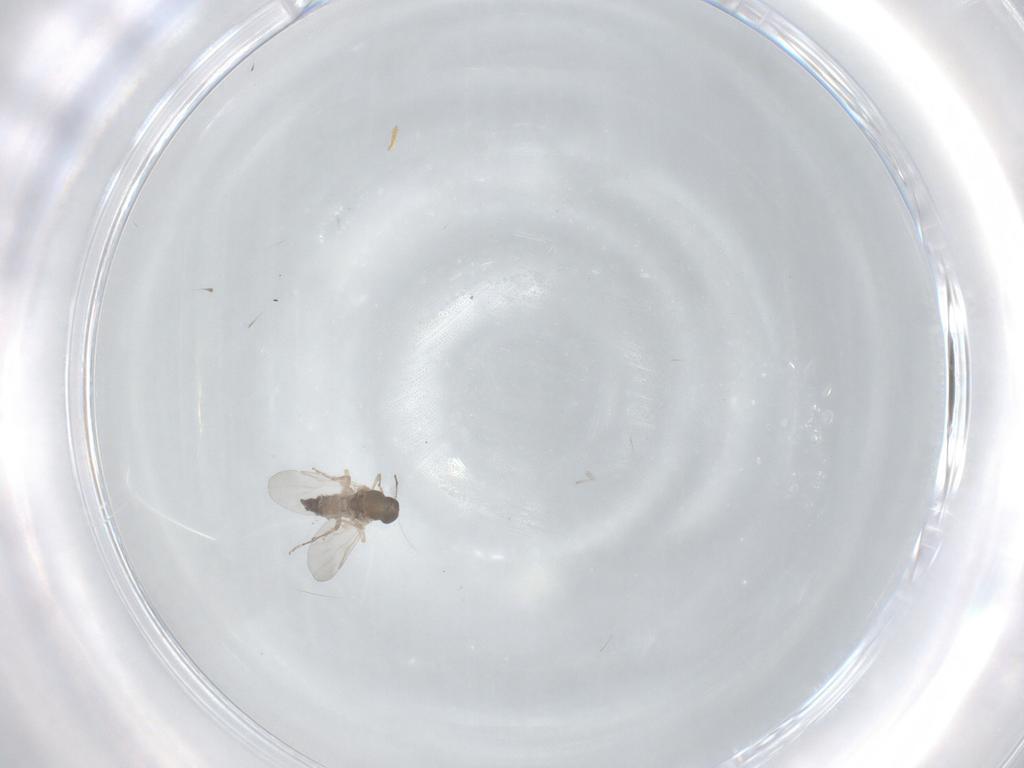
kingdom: Animalia
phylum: Arthropoda
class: Insecta
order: Diptera
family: Ceratopogonidae
